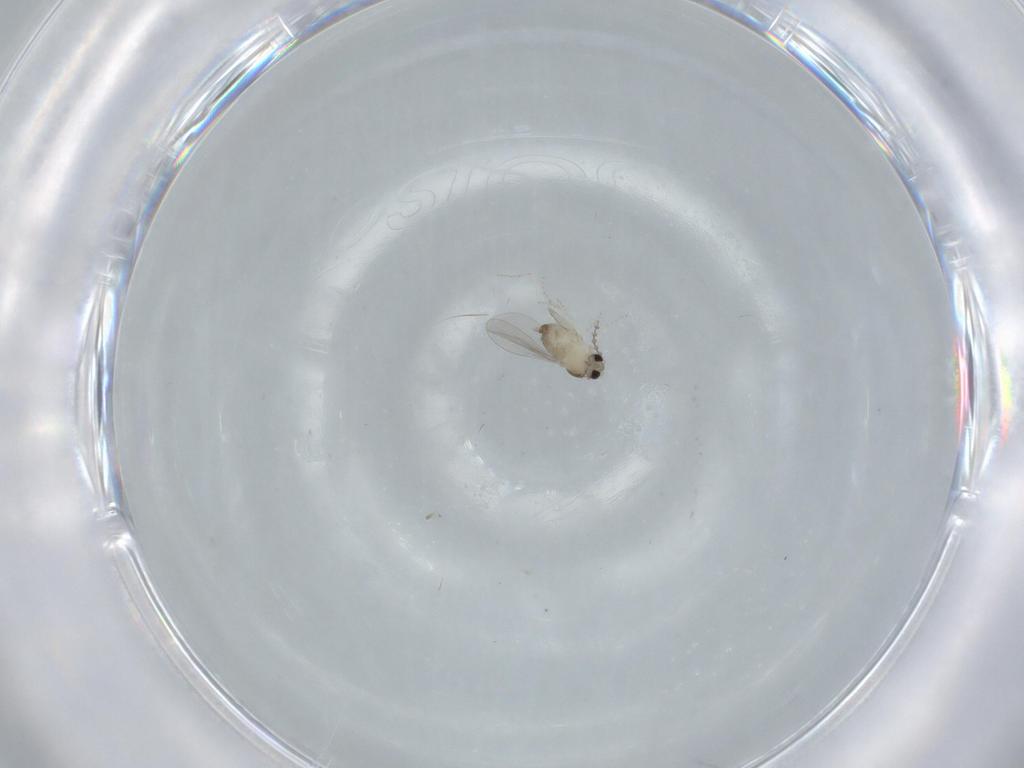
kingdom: Animalia
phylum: Arthropoda
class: Insecta
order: Diptera
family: Cecidomyiidae
